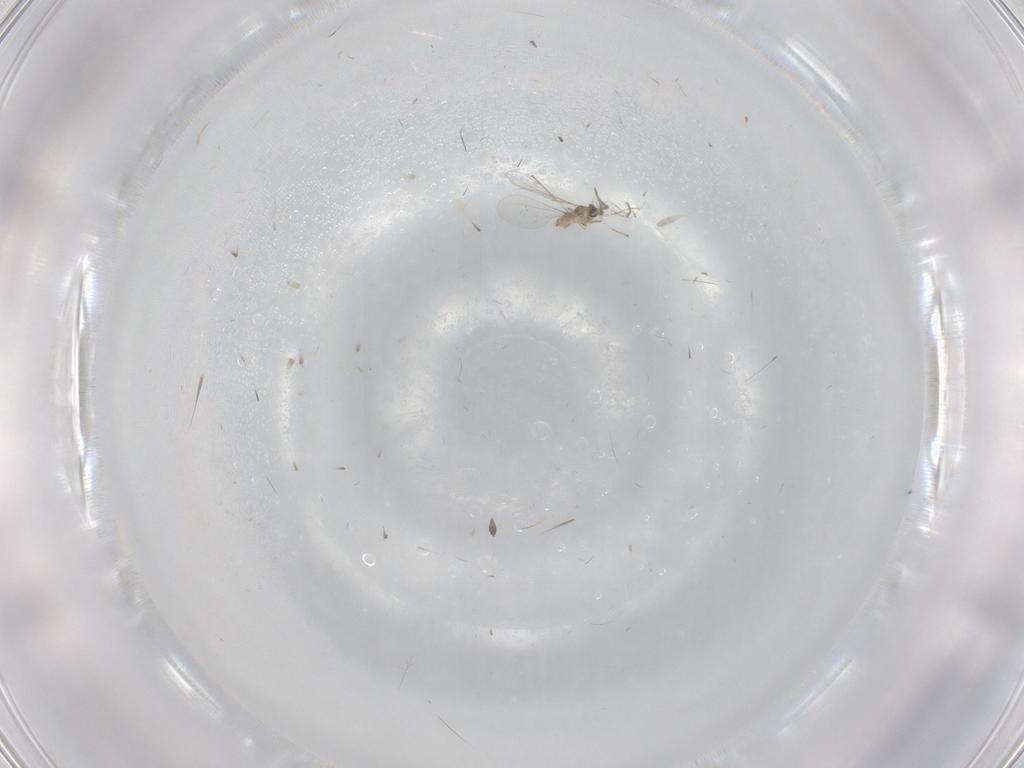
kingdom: Animalia
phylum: Arthropoda
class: Insecta
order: Diptera
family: Cecidomyiidae
